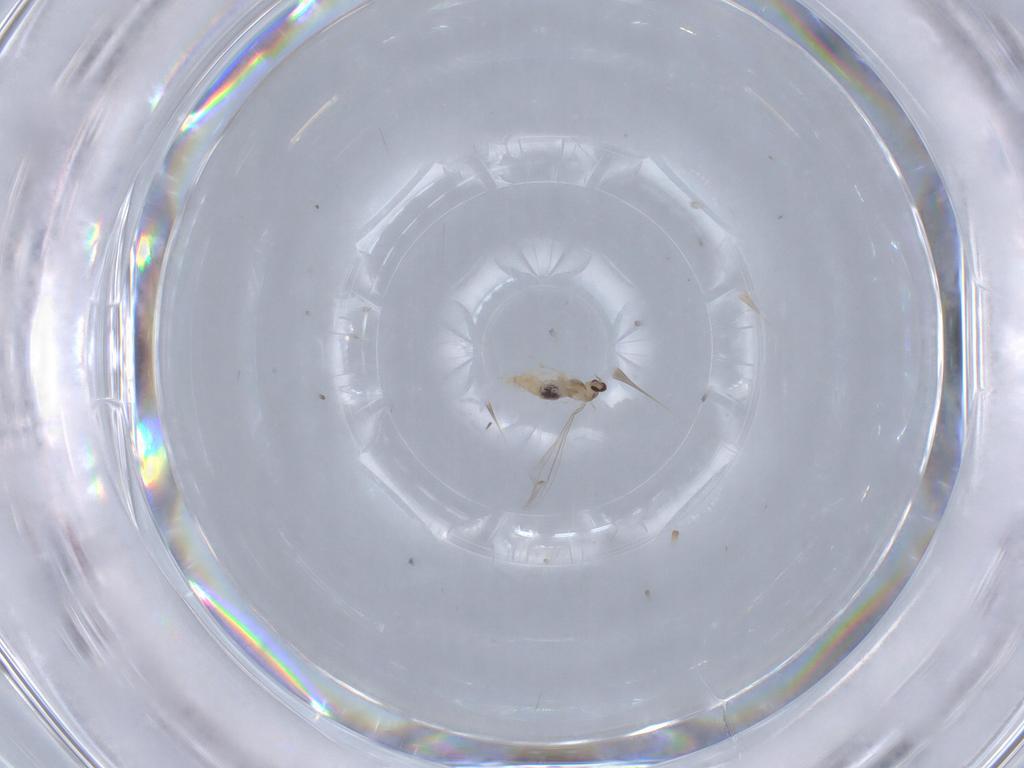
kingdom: Animalia
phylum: Arthropoda
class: Insecta
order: Diptera
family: Cecidomyiidae
